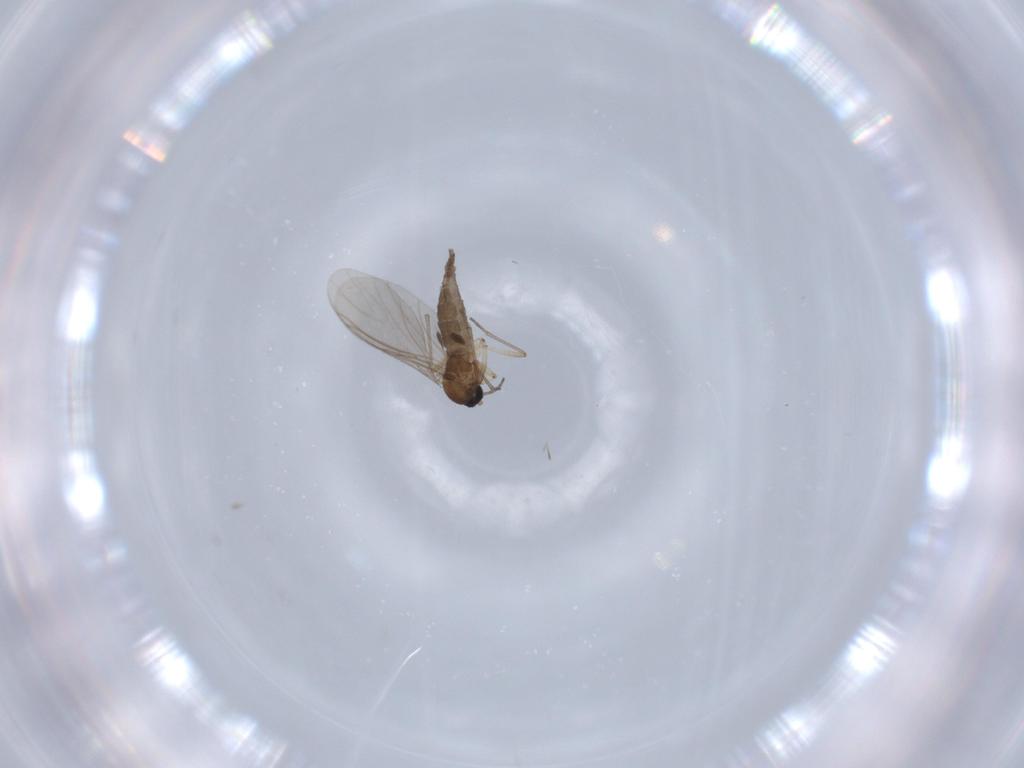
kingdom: Animalia
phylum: Arthropoda
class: Insecta
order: Diptera
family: Sciaridae
